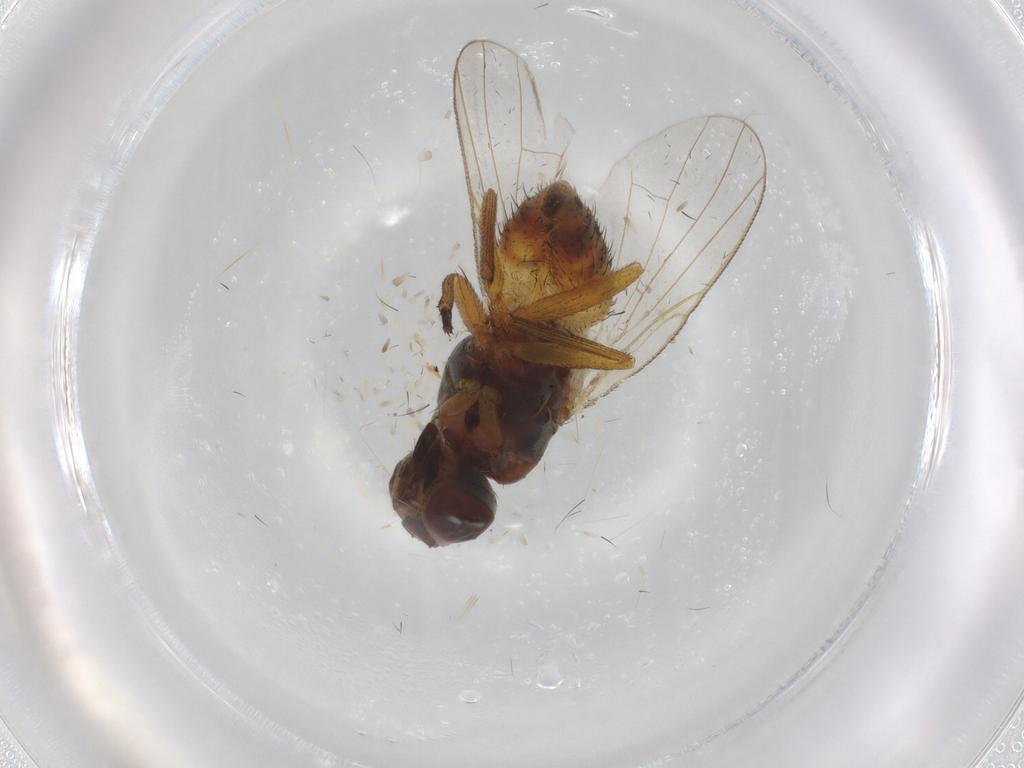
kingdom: Animalia
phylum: Arthropoda
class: Insecta
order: Diptera
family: Muscidae
